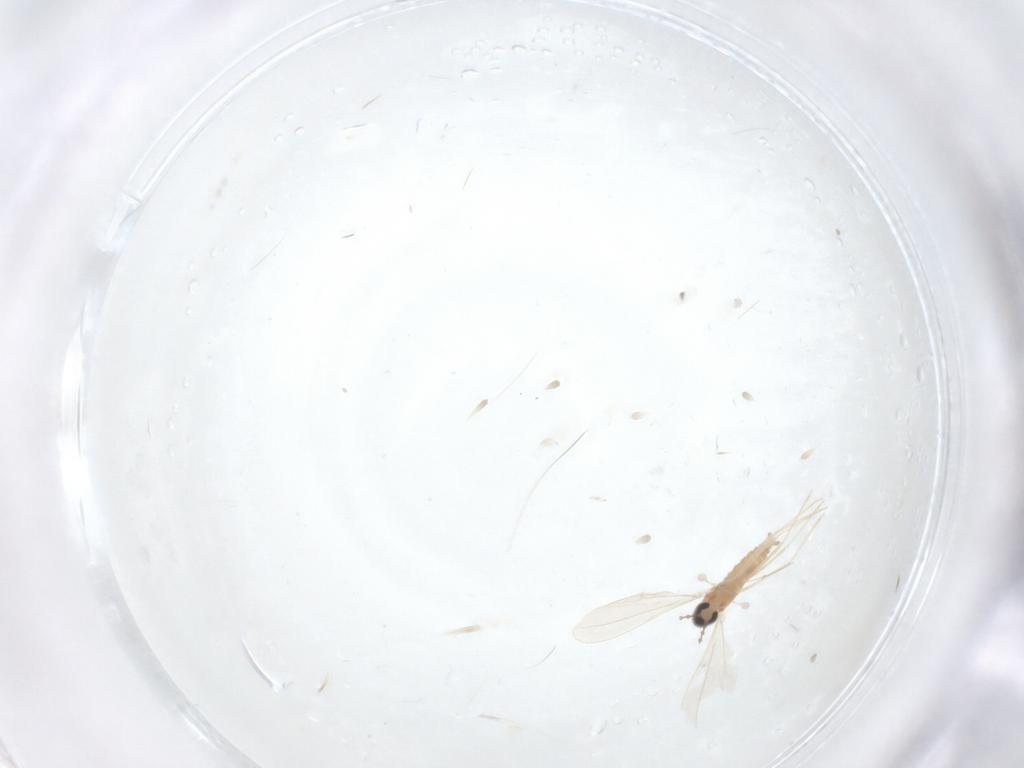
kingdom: Animalia
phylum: Arthropoda
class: Insecta
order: Diptera
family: Cecidomyiidae
